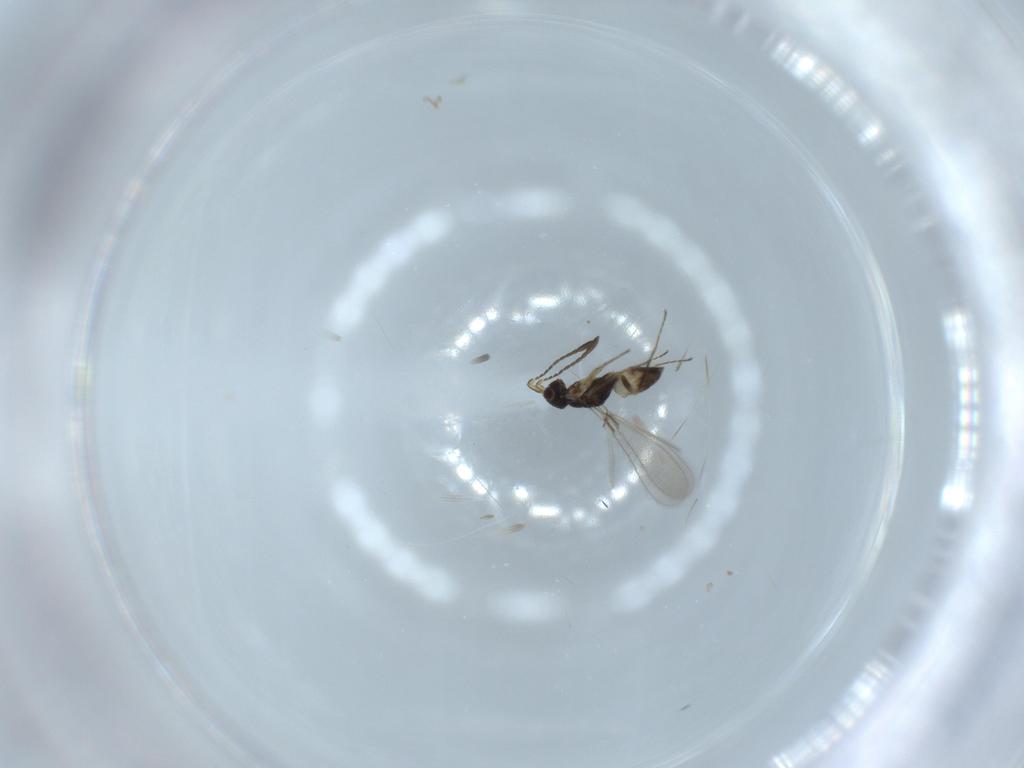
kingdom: Animalia
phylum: Arthropoda
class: Insecta
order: Hymenoptera
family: Mymaridae
